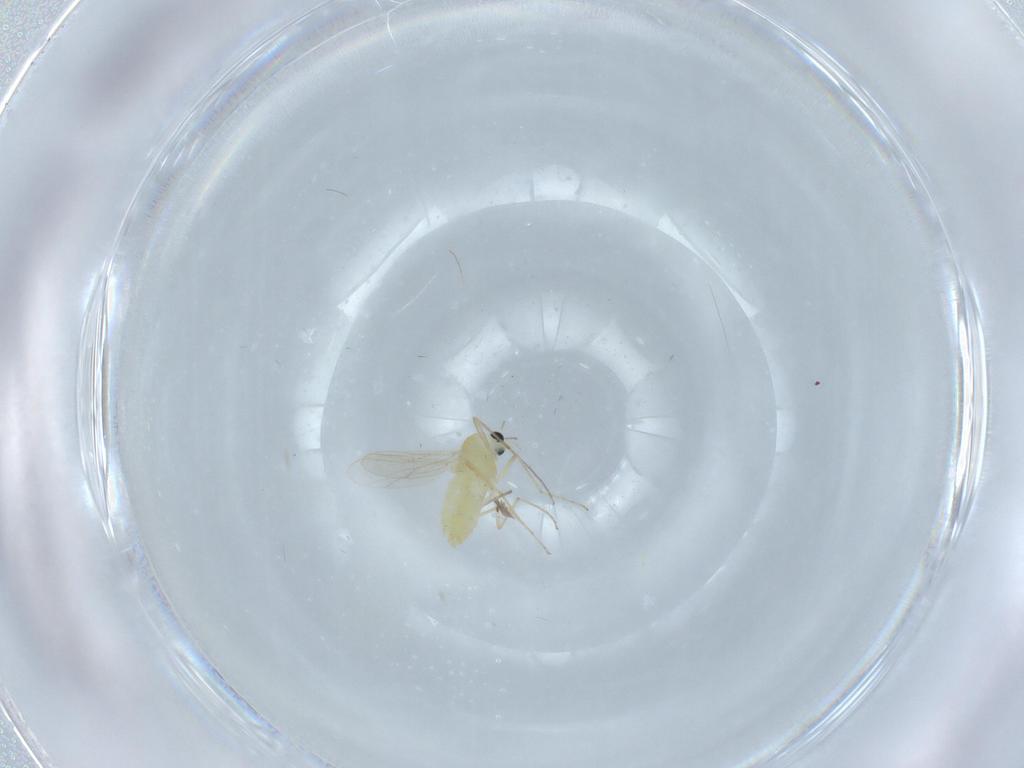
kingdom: Animalia
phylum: Arthropoda
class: Insecta
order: Diptera
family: Chironomidae
